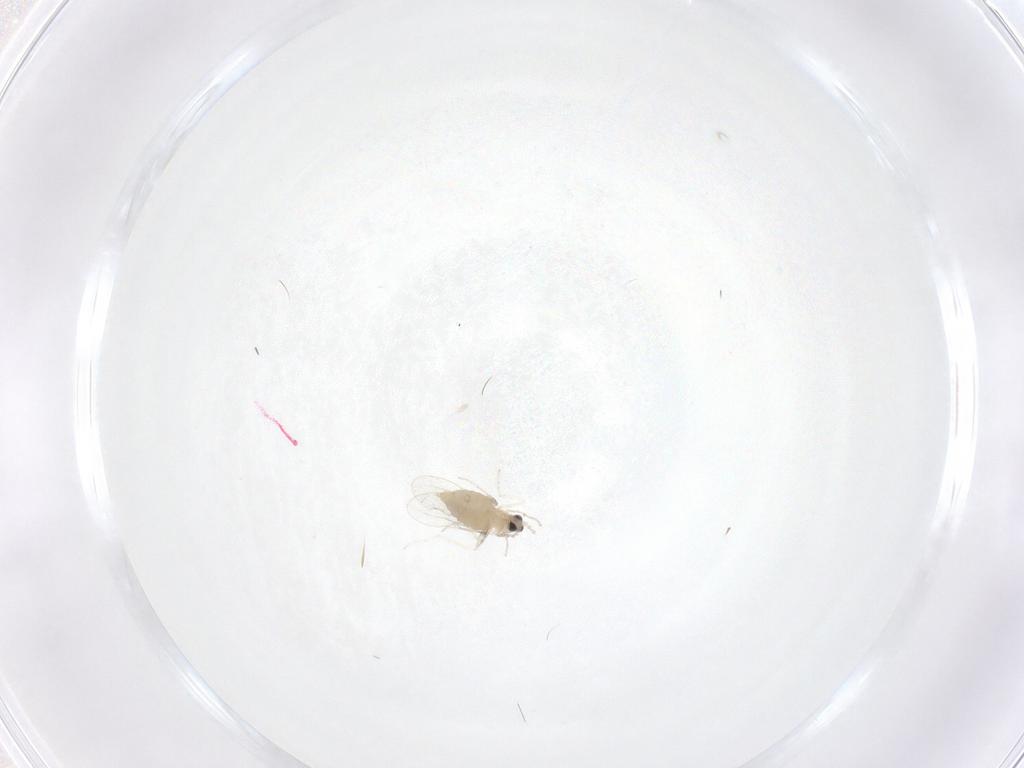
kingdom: Animalia
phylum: Arthropoda
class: Insecta
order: Diptera
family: Cecidomyiidae
